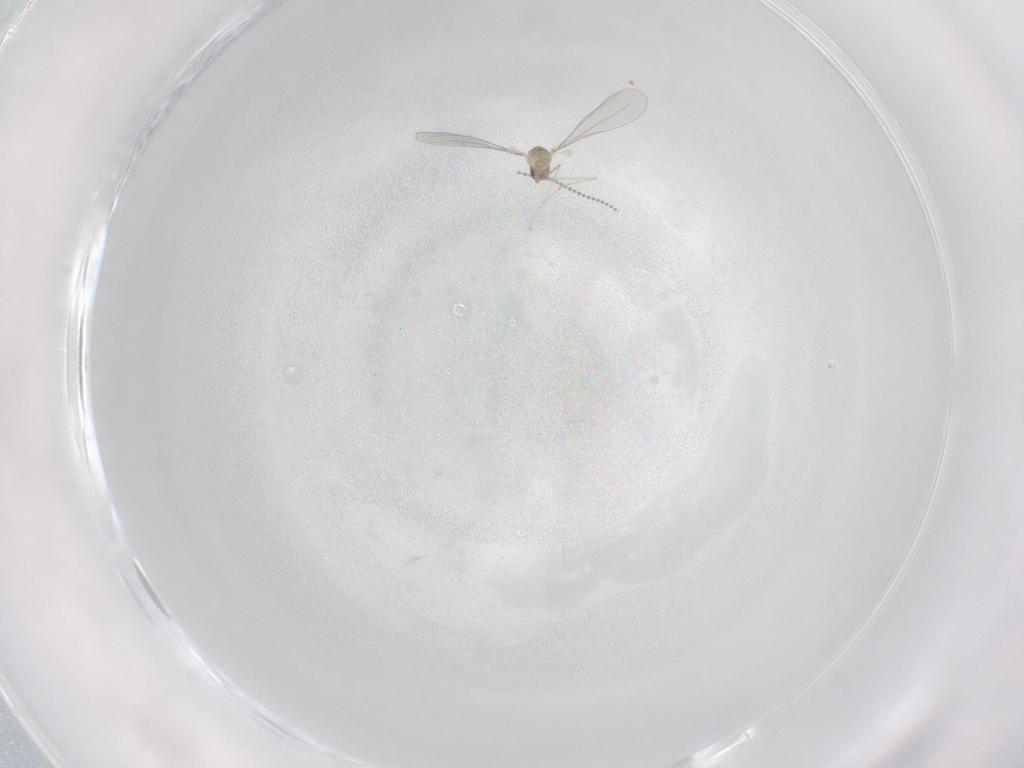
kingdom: Animalia
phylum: Arthropoda
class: Insecta
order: Diptera
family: Cecidomyiidae
